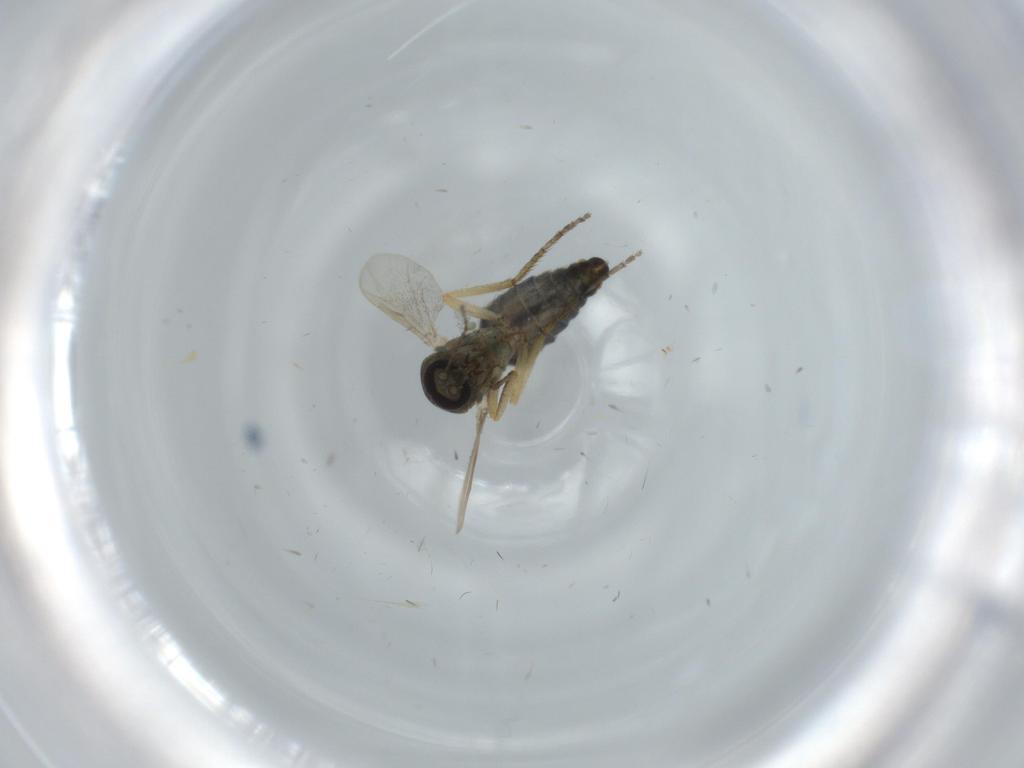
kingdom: Animalia
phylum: Arthropoda
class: Insecta
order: Diptera
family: Ceratopogonidae
